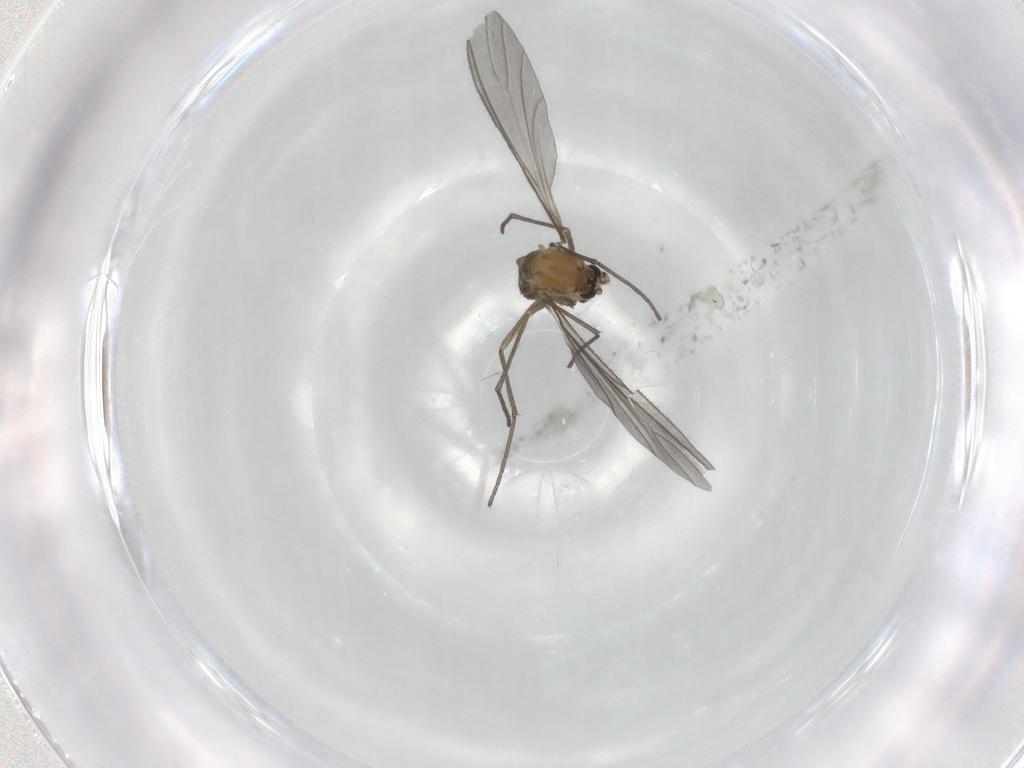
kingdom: Animalia
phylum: Arthropoda
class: Insecta
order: Diptera
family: Sciaridae
